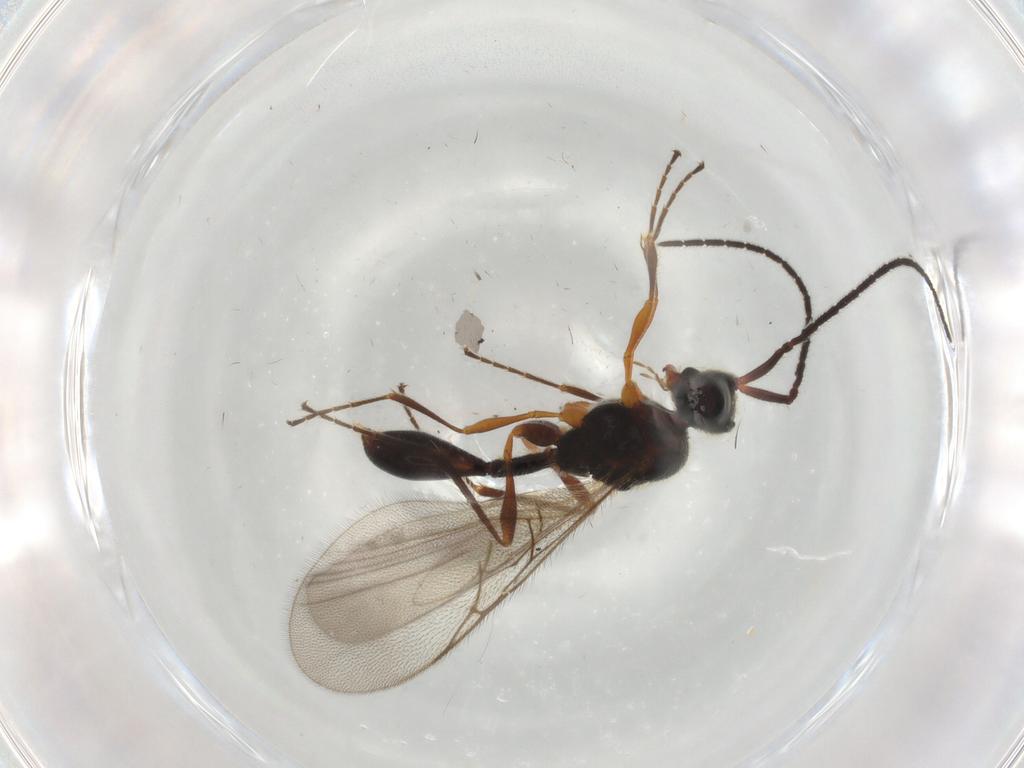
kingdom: Animalia
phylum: Arthropoda
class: Insecta
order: Hymenoptera
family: Diapriidae
